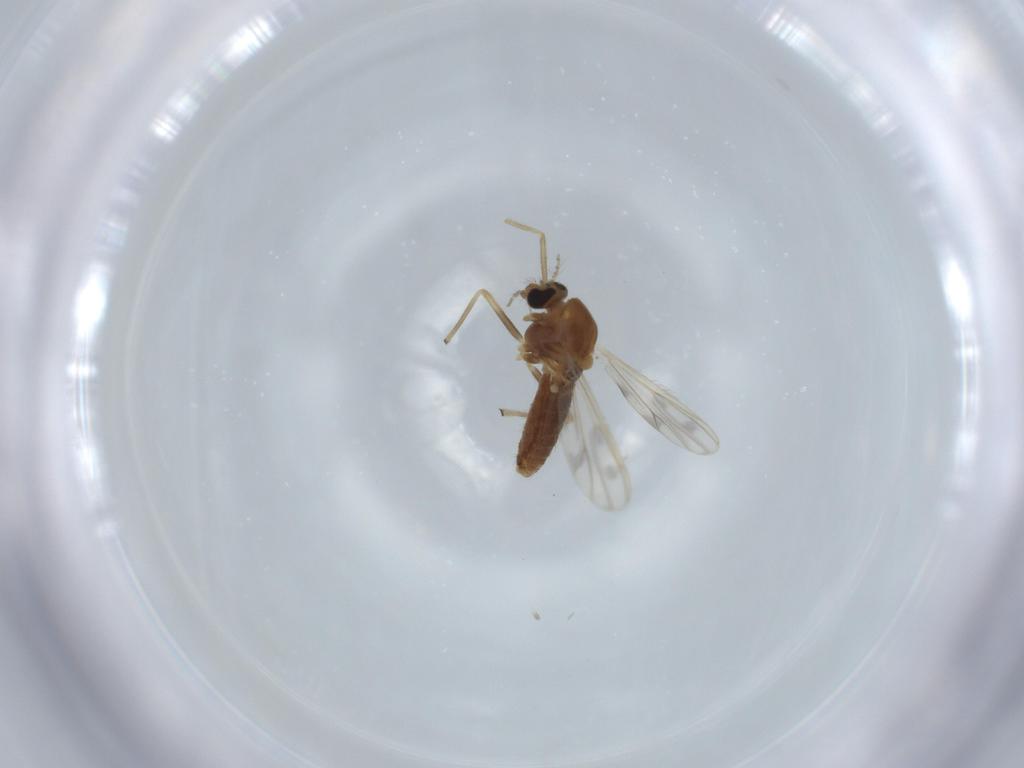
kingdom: Animalia
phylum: Arthropoda
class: Insecta
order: Diptera
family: Chironomidae
